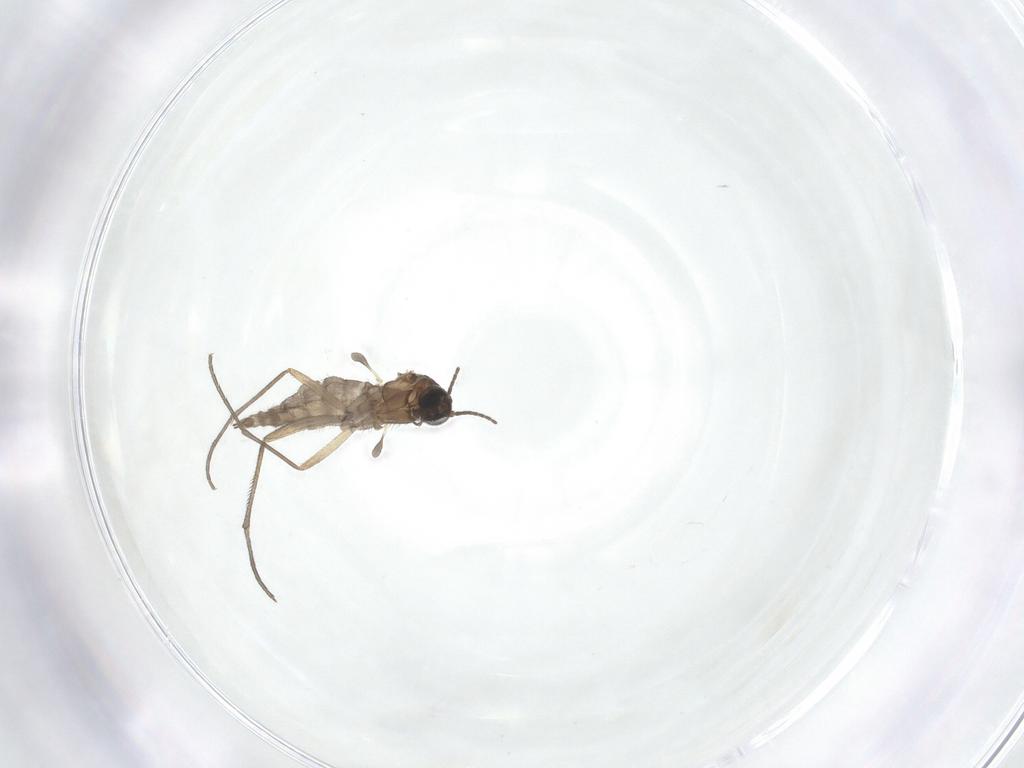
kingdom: Animalia
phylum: Arthropoda
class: Insecta
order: Diptera
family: Sciaridae
